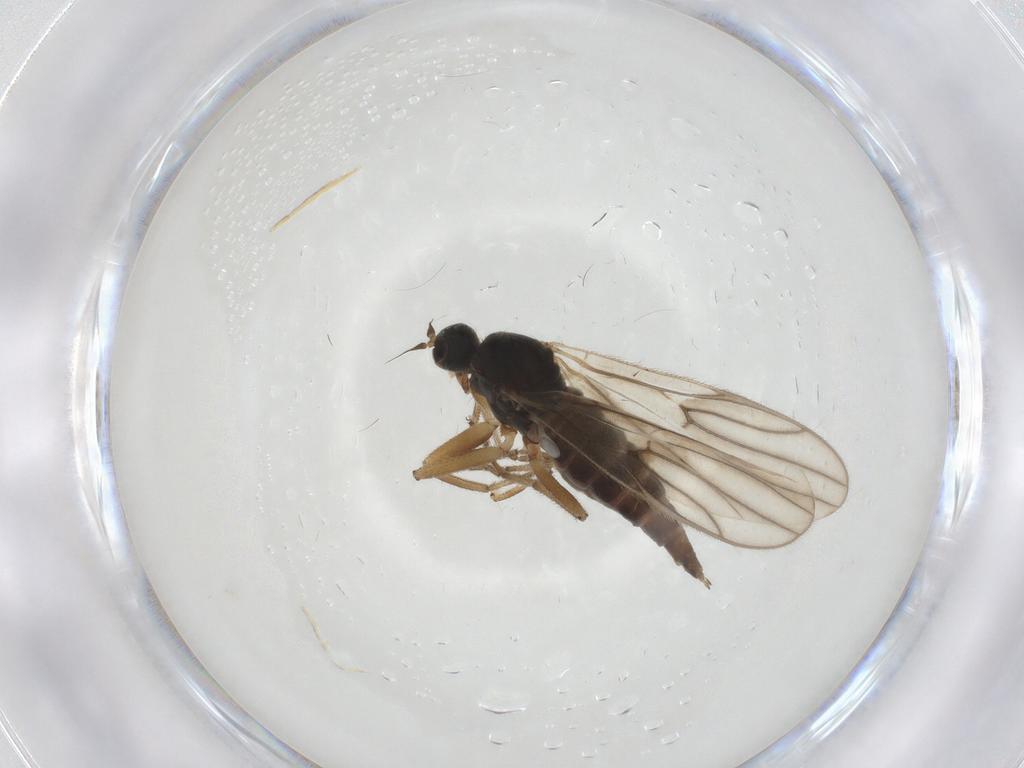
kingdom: Animalia
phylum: Arthropoda
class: Insecta
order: Diptera
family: Hybotidae
